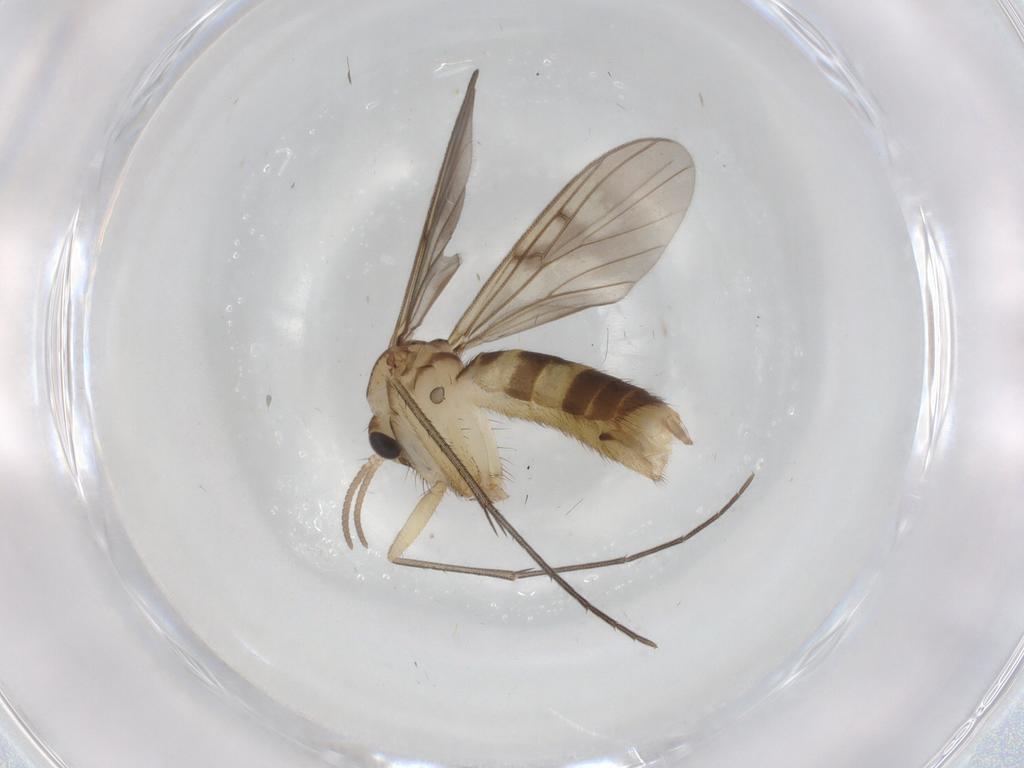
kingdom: Animalia
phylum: Arthropoda
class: Insecta
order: Diptera
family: Mycetophilidae
